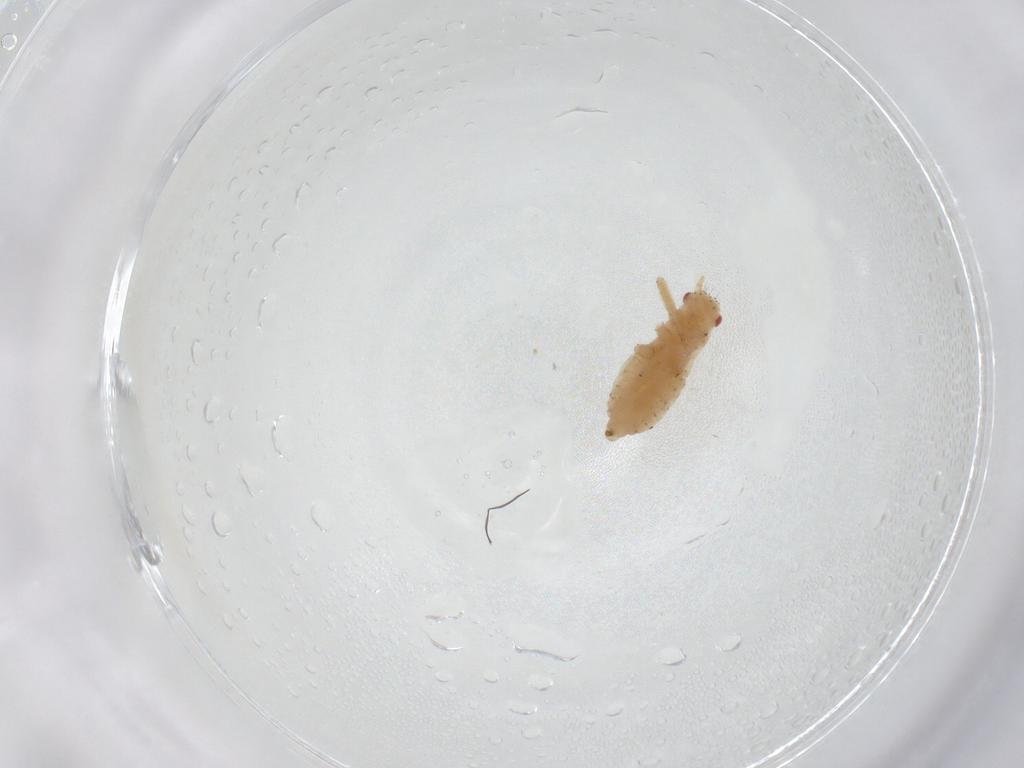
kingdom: Animalia
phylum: Arthropoda
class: Insecta
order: Hemiptera
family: Aphididae
